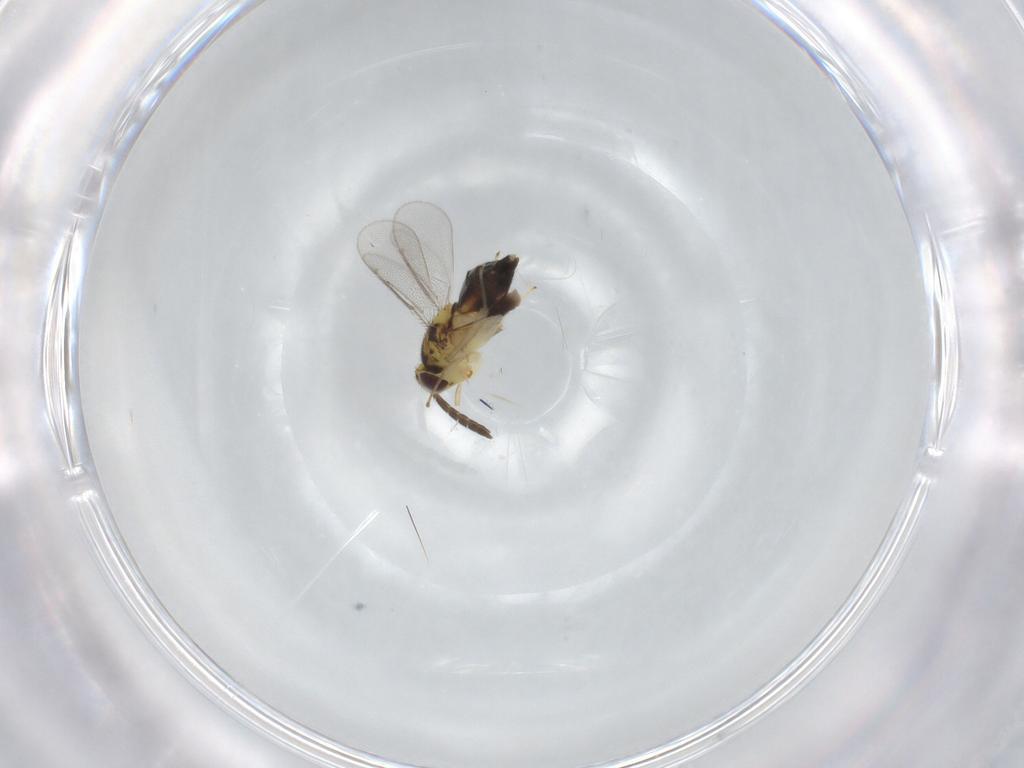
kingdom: Animalia
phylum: Arthropoda
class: Insecta
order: Hymenoptera
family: Aphelinidae
